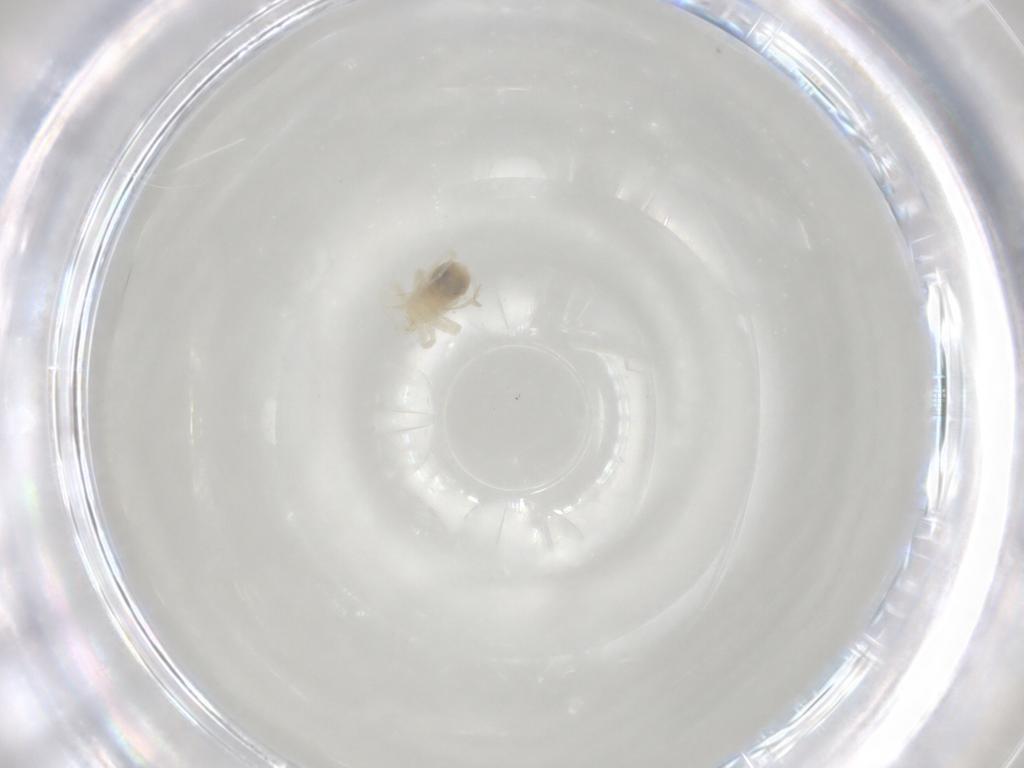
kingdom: Animalia
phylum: Arthropoda
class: Arachnida
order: Trombidiformes
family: Anystidae
